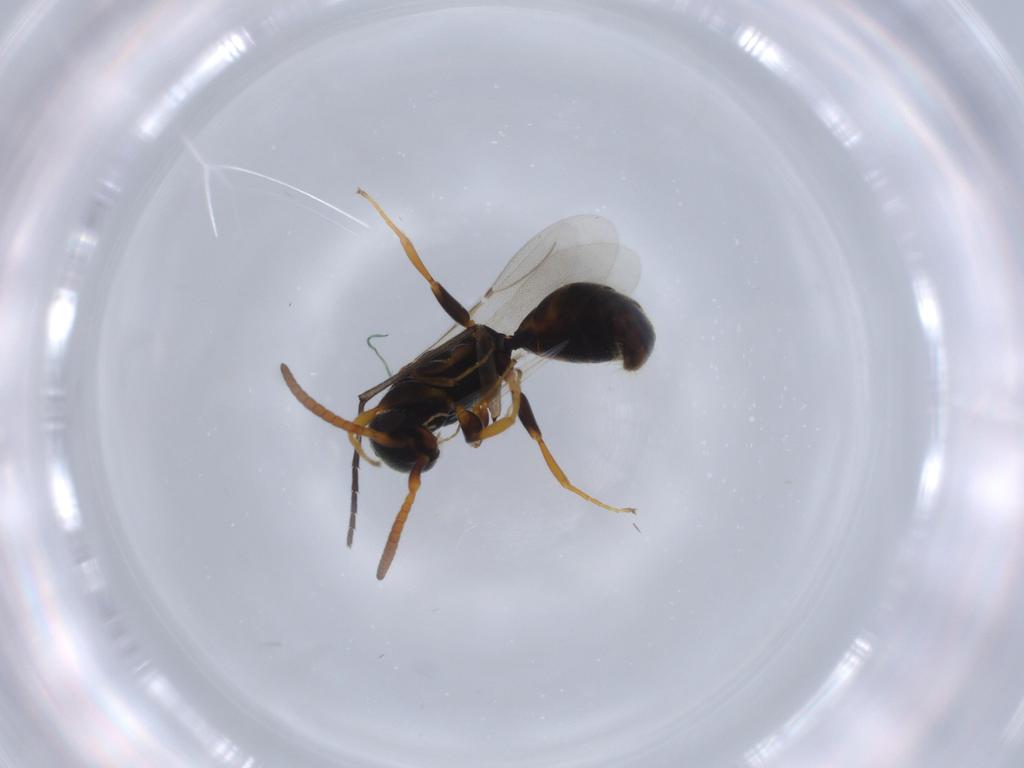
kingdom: Animalia
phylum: Arthropoda
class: Insecta
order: Hymenoptera
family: Bethylidae
